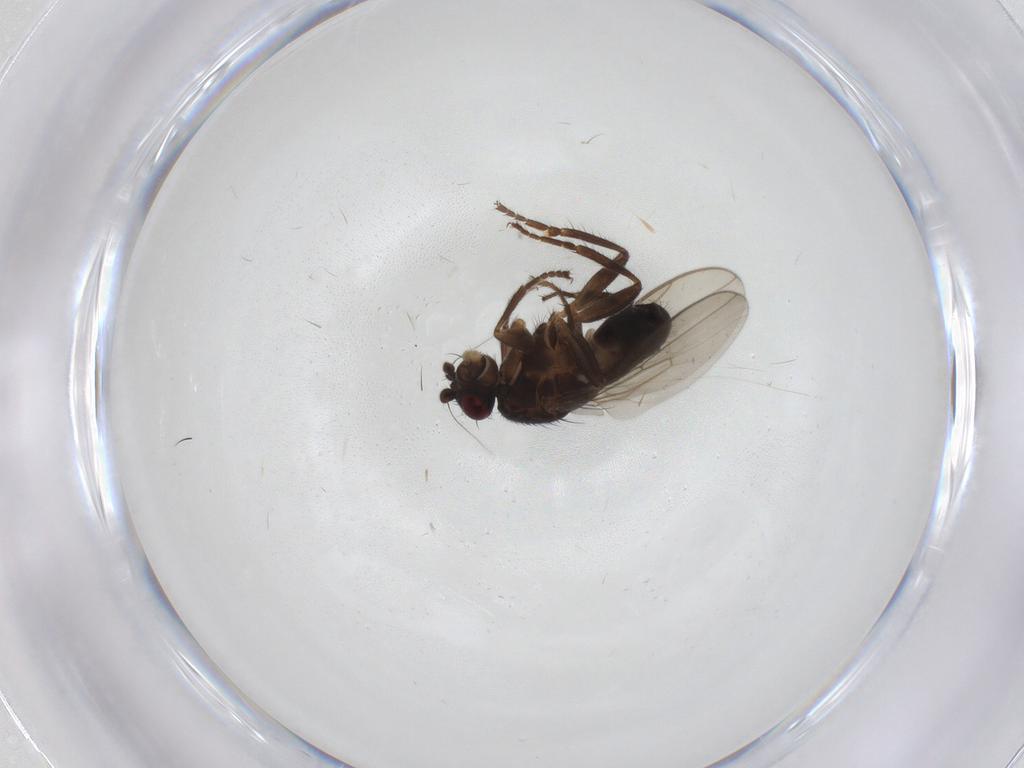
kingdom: Animalia
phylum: Arthropoda
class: Insecta
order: Diptera
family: Sphaeroceridae
